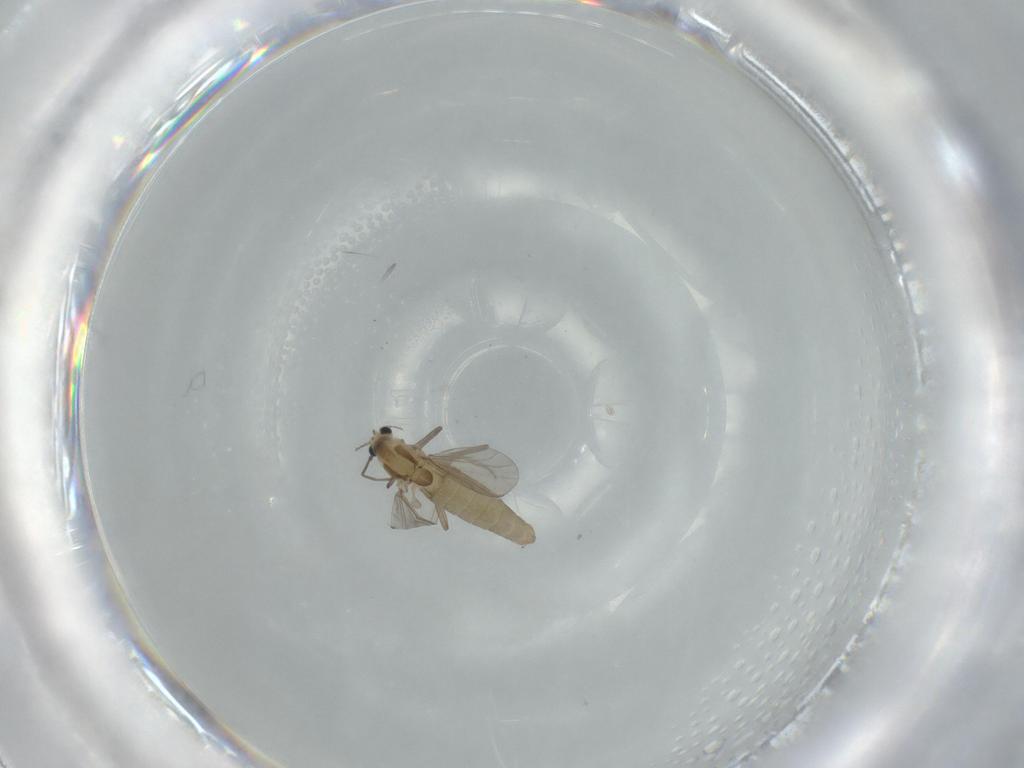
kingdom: Animalia
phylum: Arthropoda
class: Insecta
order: Diptera
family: Chironomidae
